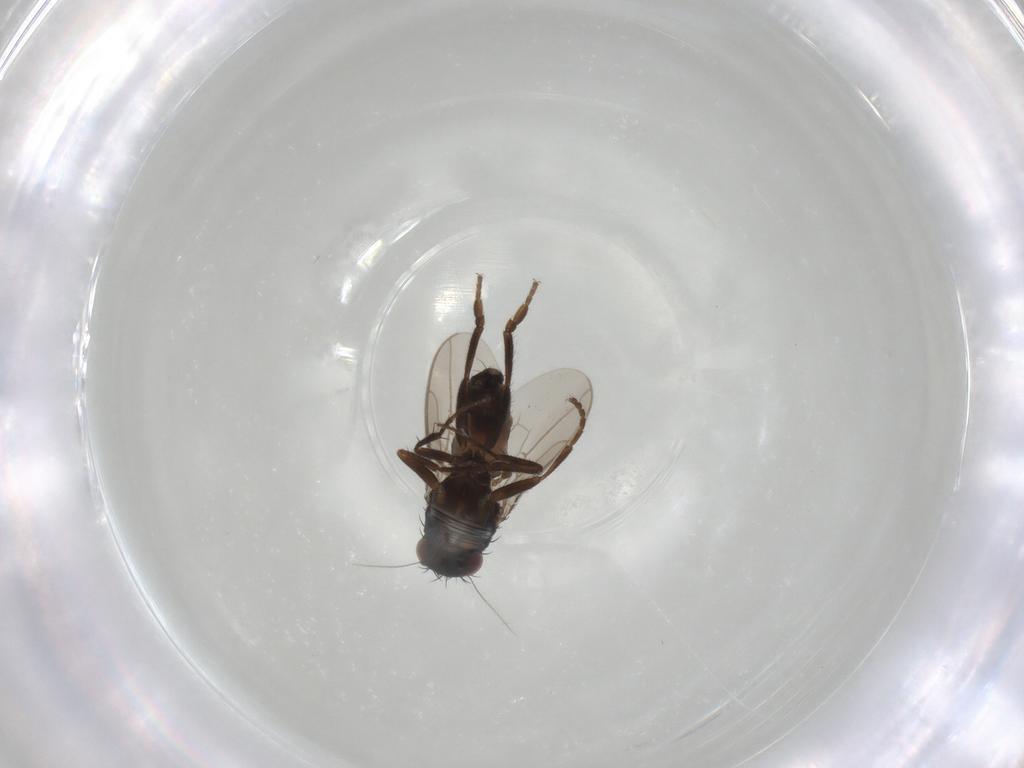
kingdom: Animalia
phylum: Arthropoda
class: Insecta
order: Diptera
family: Sphaeroceridae
